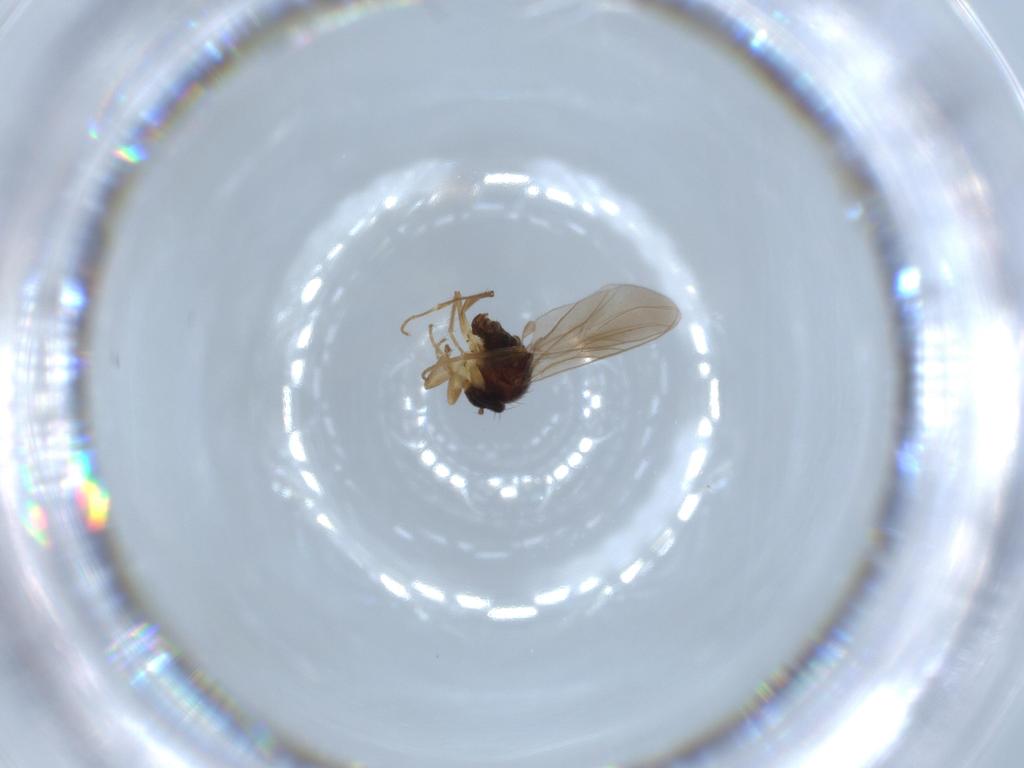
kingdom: Animalia
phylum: Arthropoda
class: Insecta
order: Diptera
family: Hybotidae
